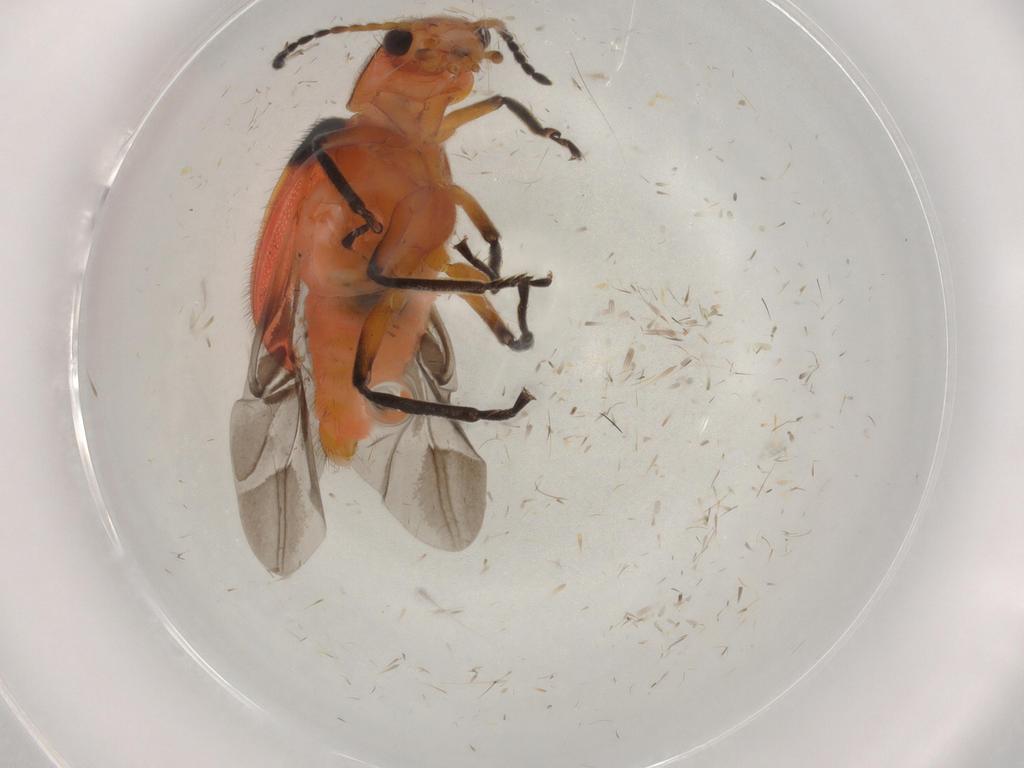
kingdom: Animalia
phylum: Arthropoda
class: Insecta
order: Coleoptera
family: Melyridae
